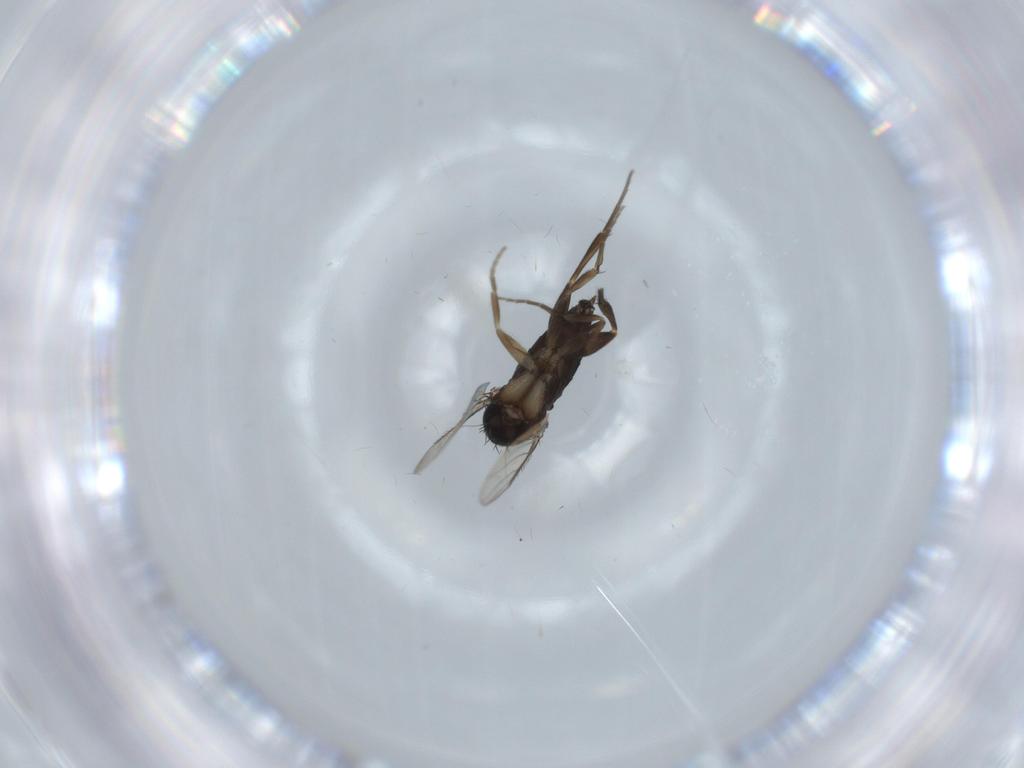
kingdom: Animalia
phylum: Arthropoda
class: Insecta
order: Diptera
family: Phoridae
